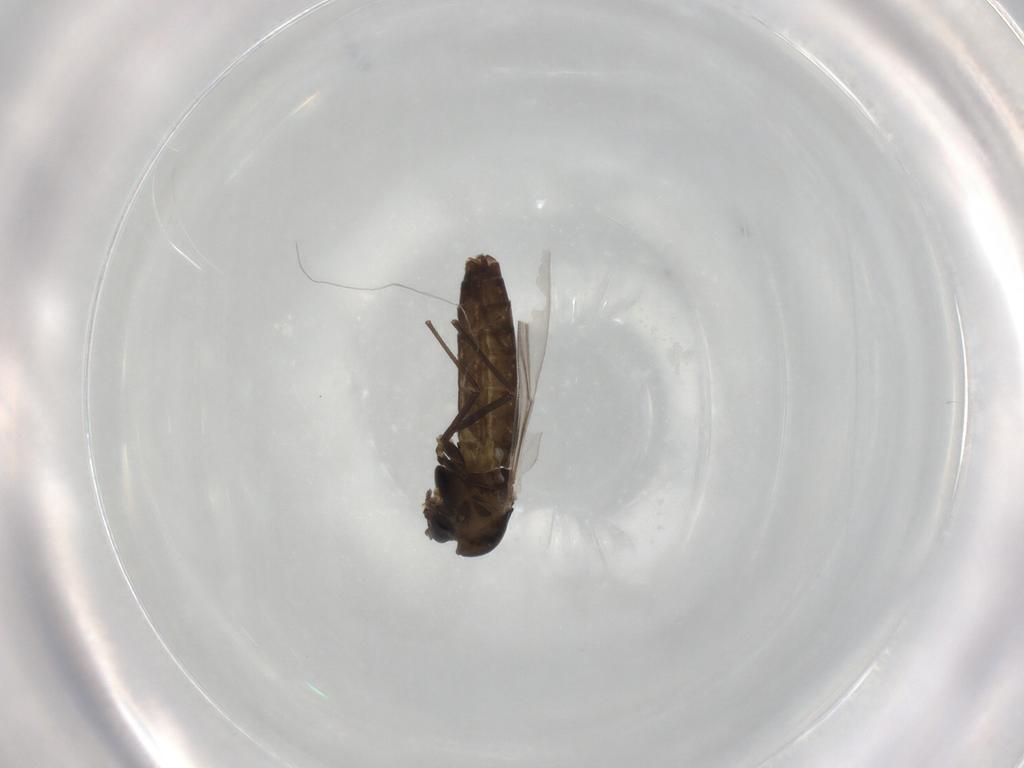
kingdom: Animalia
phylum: Arthropoda
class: Insecta
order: Diptera
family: Chironomidae
